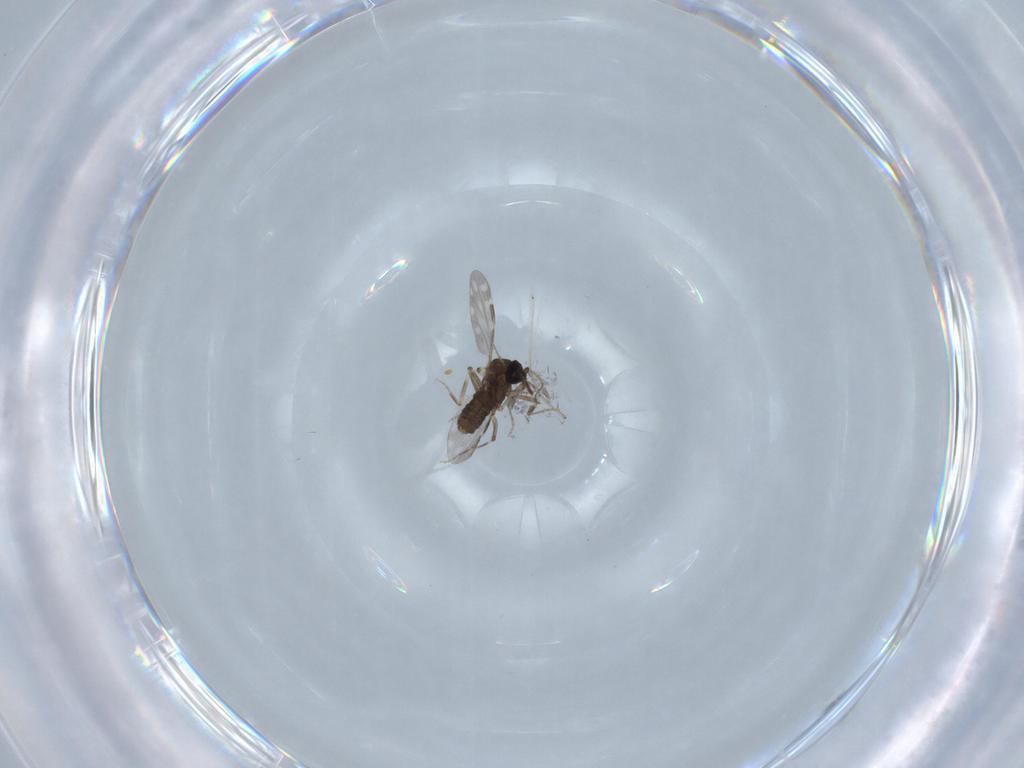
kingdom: Animalia
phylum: Arthropoda
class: Insecta
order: Diptera
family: Cecidomyiidae
